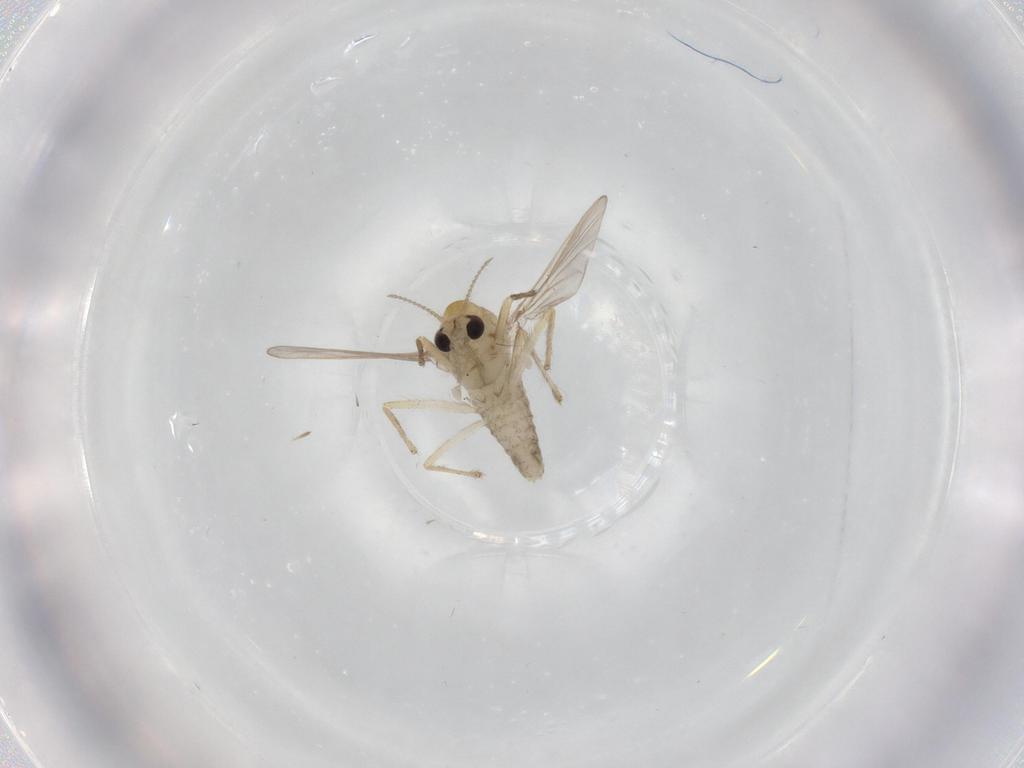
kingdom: Animalia
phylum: Arthropoda
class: Insecta
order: Diptera
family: Chironomidae
